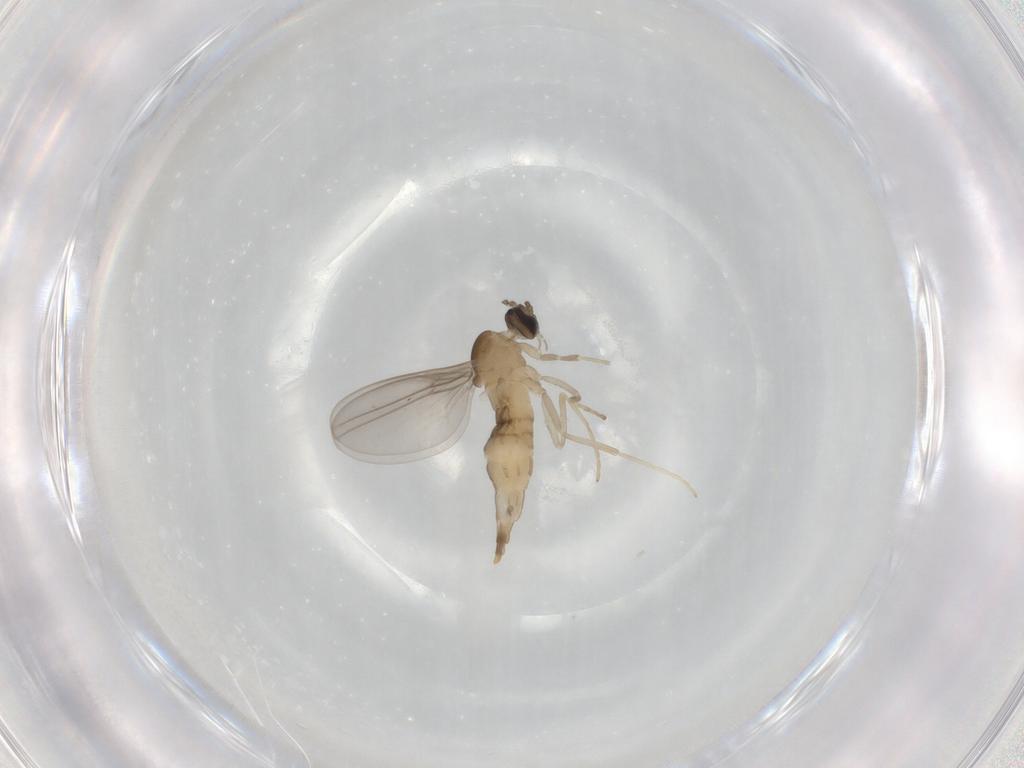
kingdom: Animalia
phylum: Arthropoda
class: Insecta
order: Diptera
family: Cecidomyiidae
